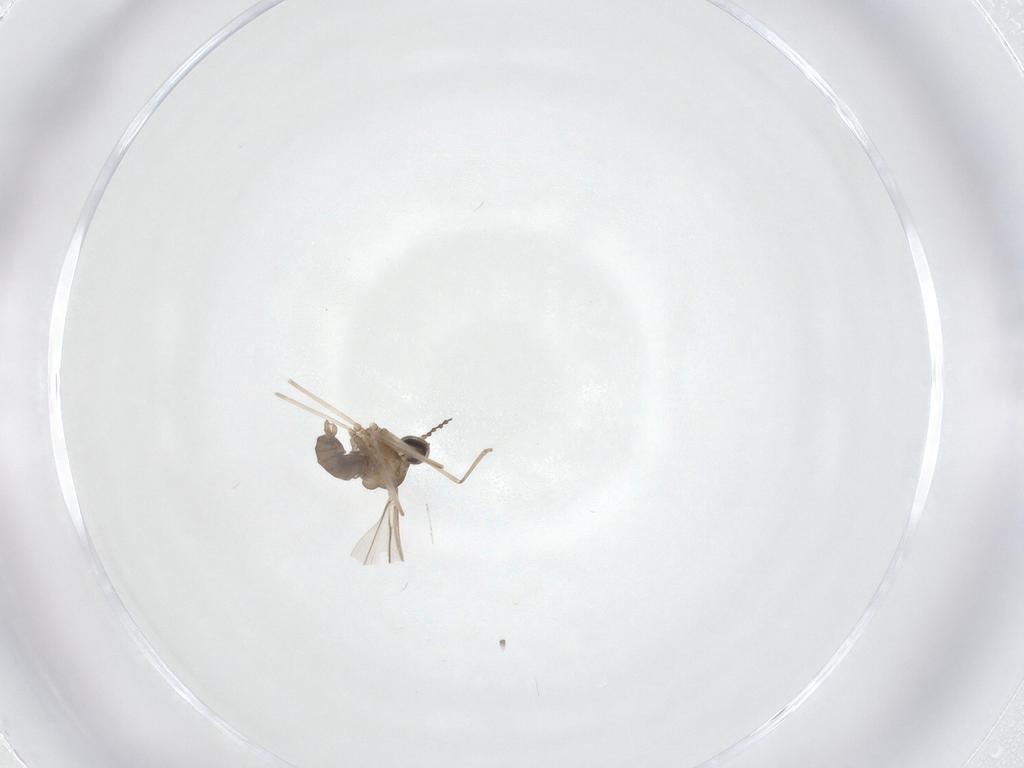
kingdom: Animalia
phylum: Arthropoda
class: Insecta
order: Diptera
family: Cecidomyiidae
